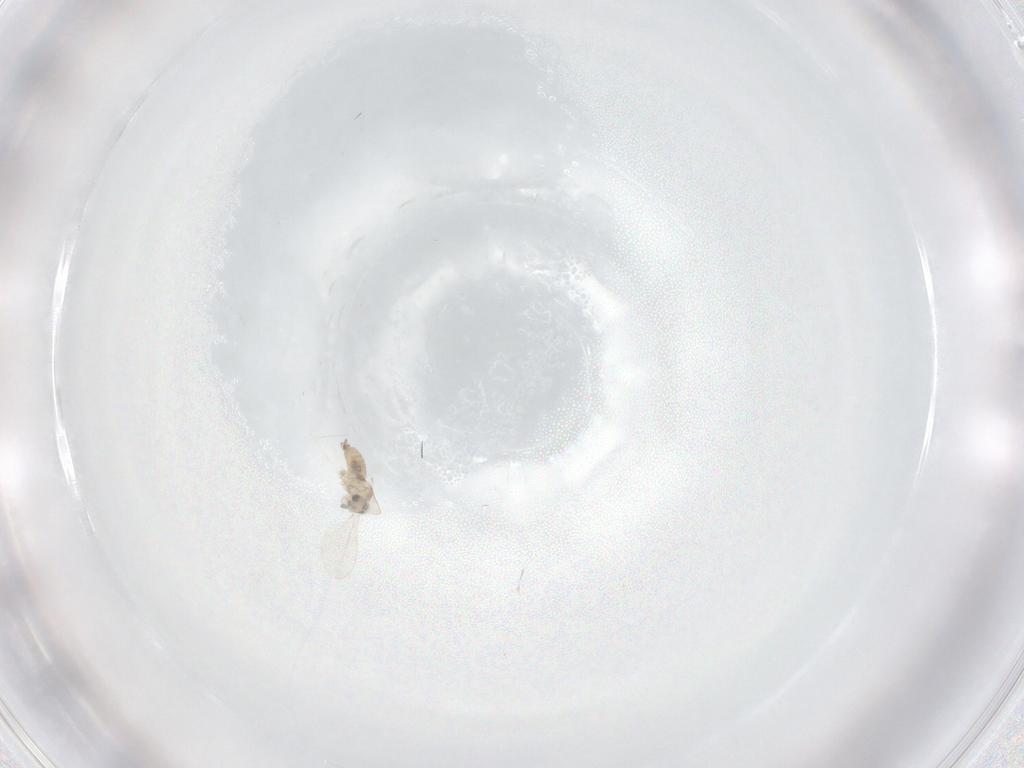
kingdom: Animalia
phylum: Arthropoda
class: Insecta
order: Diptera
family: Cecidomyiidae
